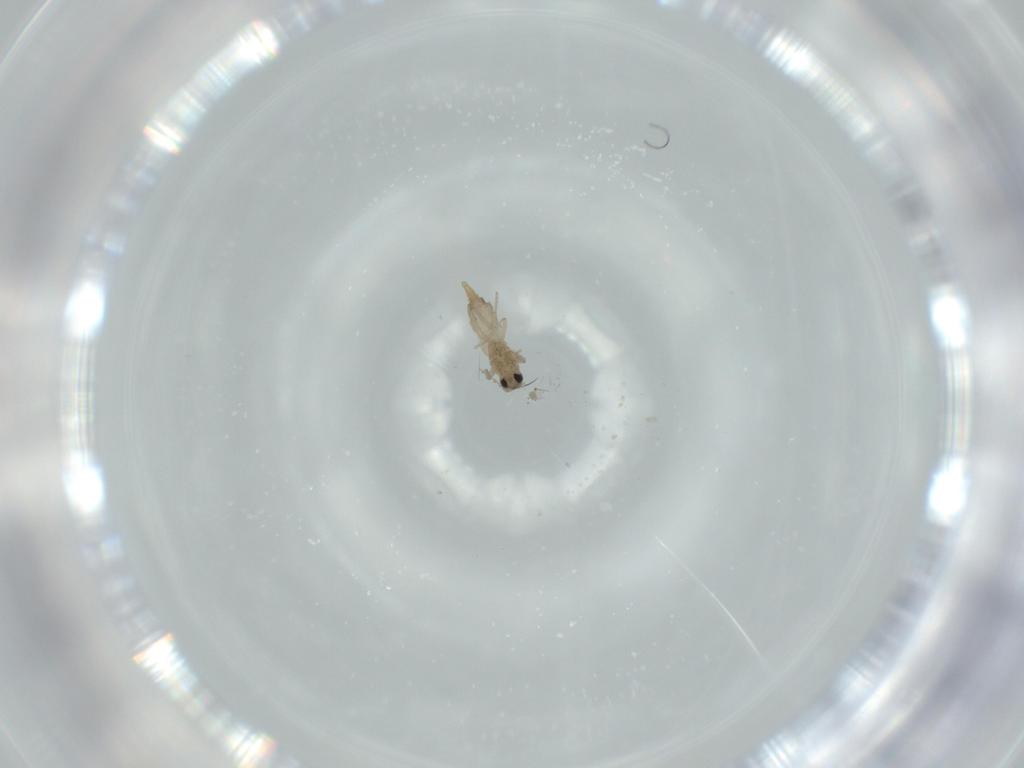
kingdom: Animalia
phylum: Arthropoda
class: Insecta
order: Diptera
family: Cecidomyiidae
